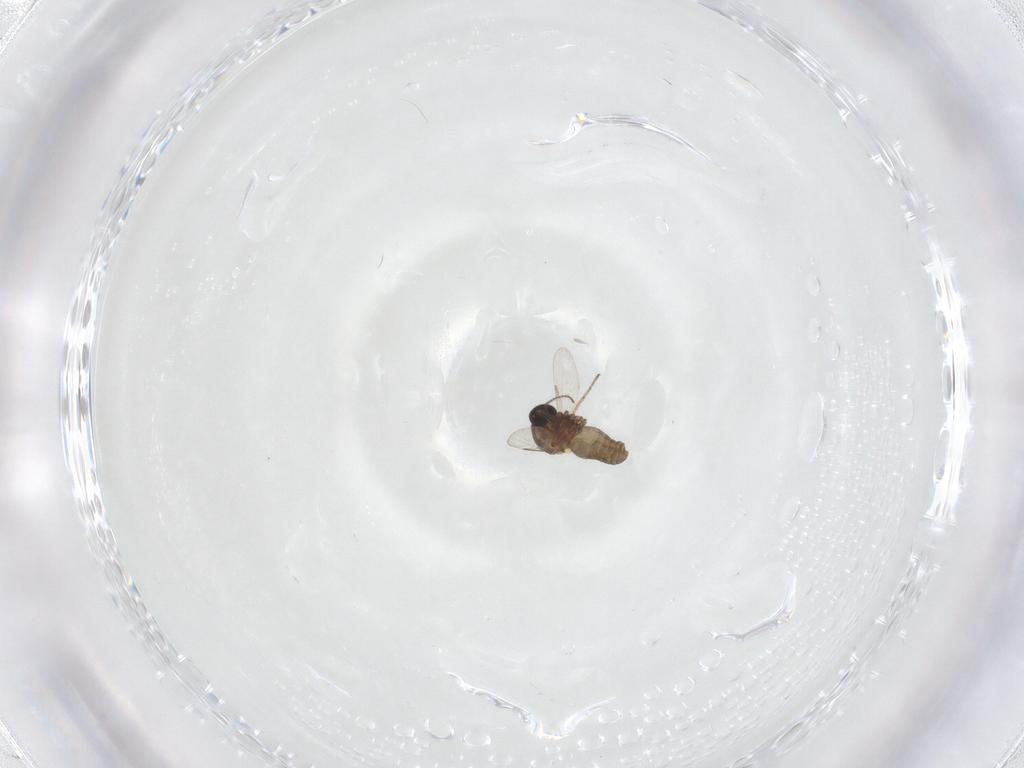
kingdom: Animalia
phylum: Arthropoda
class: Insecta
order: Diptera
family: Ceratopogonidae
